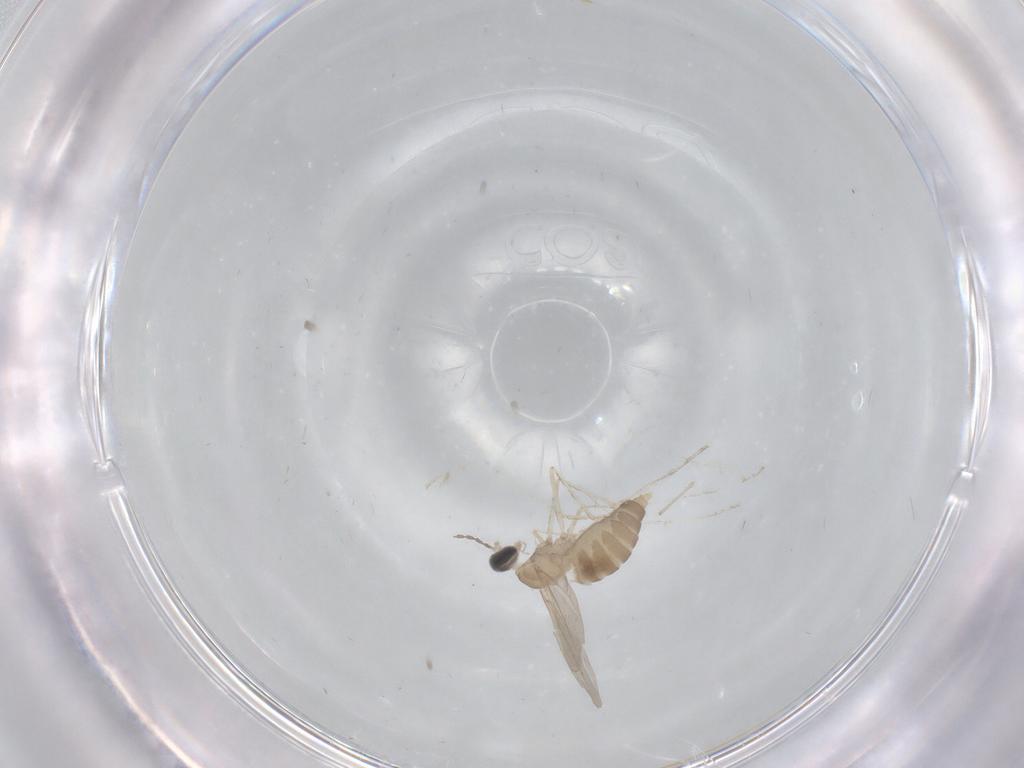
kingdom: Animalia
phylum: Arthropoda
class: Insecta
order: Diptera
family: Cecidomyiidae
